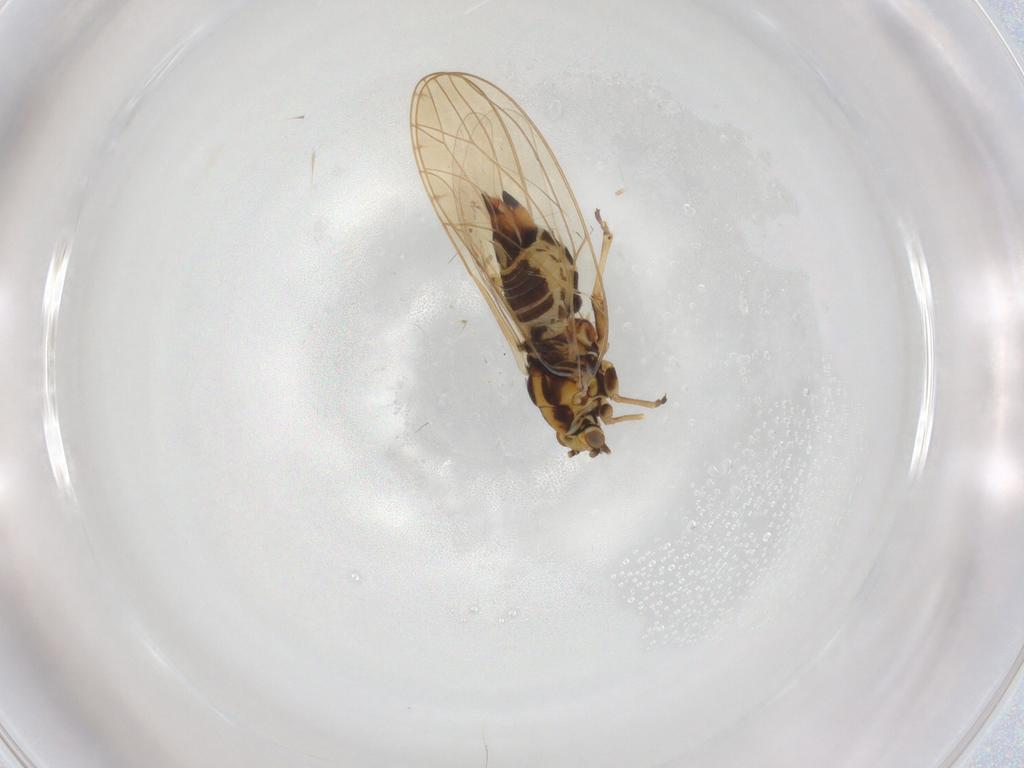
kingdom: Animalia
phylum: Arthropoda
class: Insecta
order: Hemiptera
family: Triozidae
